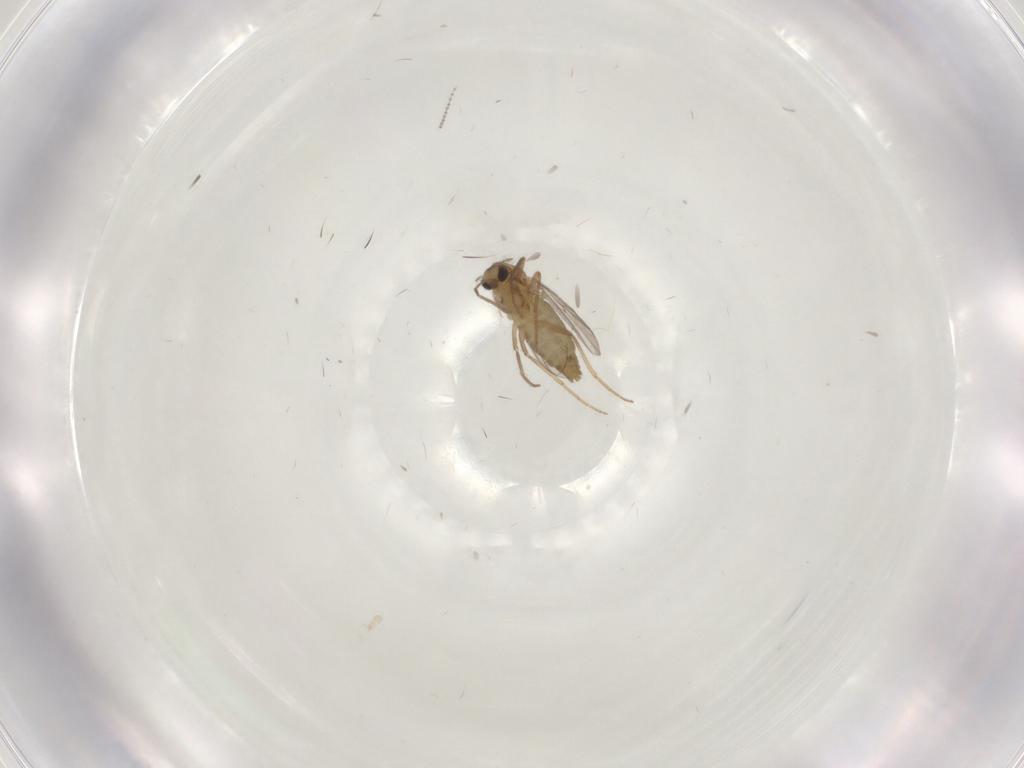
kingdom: Animalia
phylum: Arthropoda
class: Insecta
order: Diptera
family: Chironomidae
